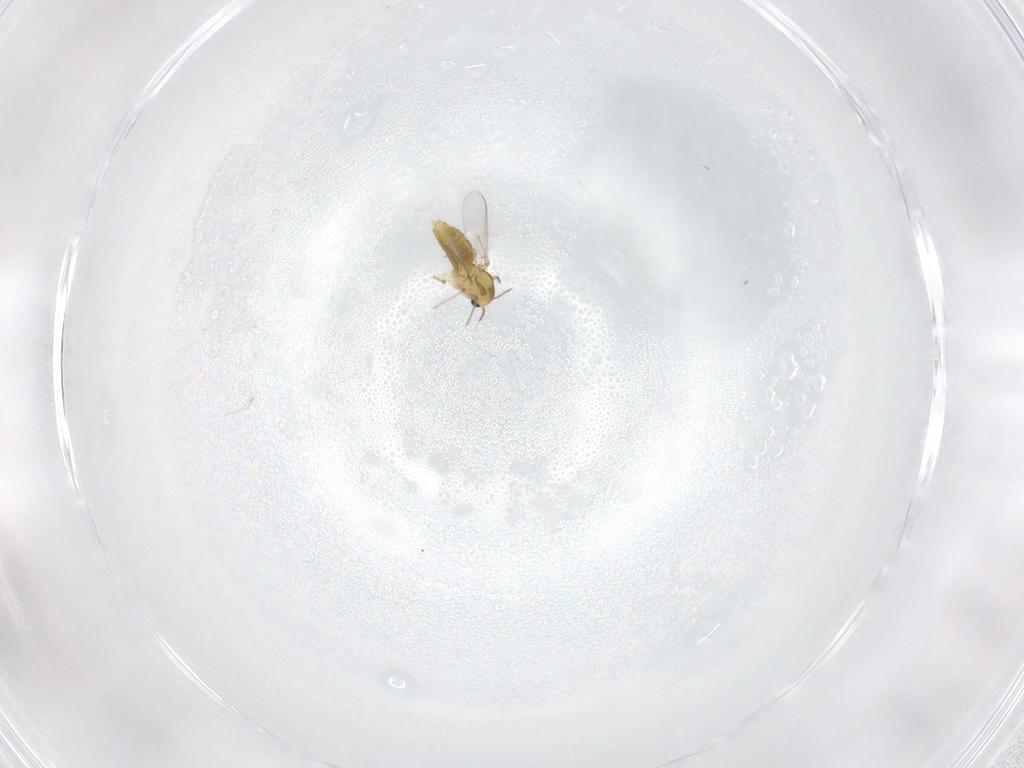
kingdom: Animalia
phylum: Arthropoda
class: Insecta
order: Diptera
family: Chironomidae
